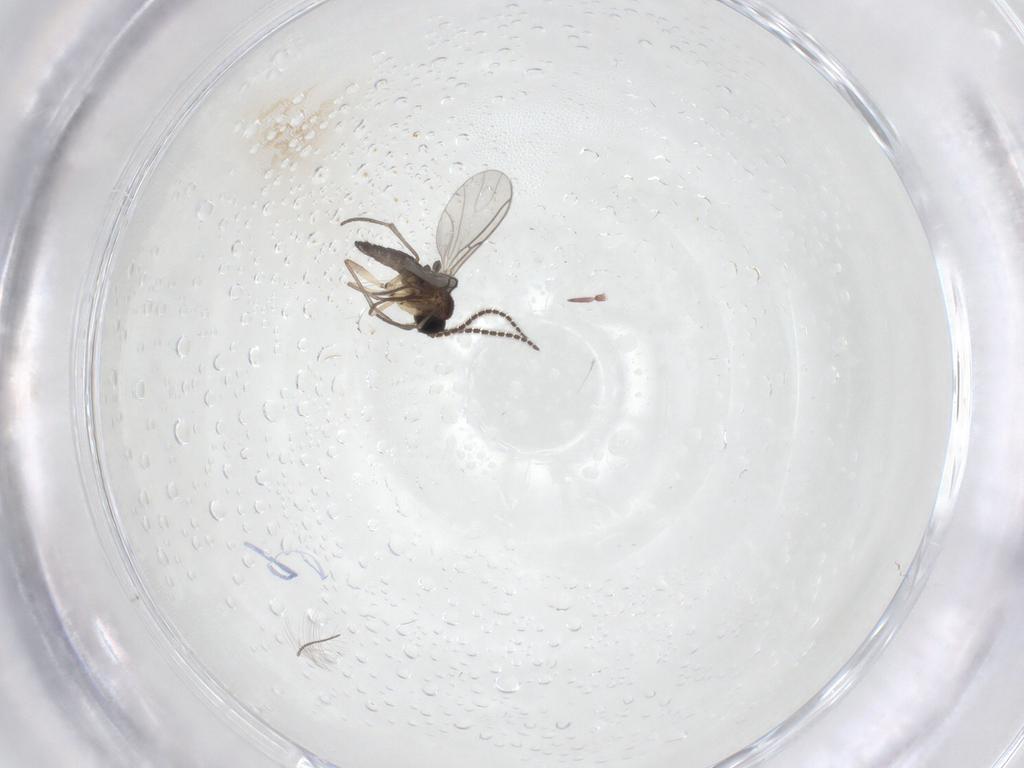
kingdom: Animalia
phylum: Arthropoda
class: Insecta
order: Diptera
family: Sciaridae
